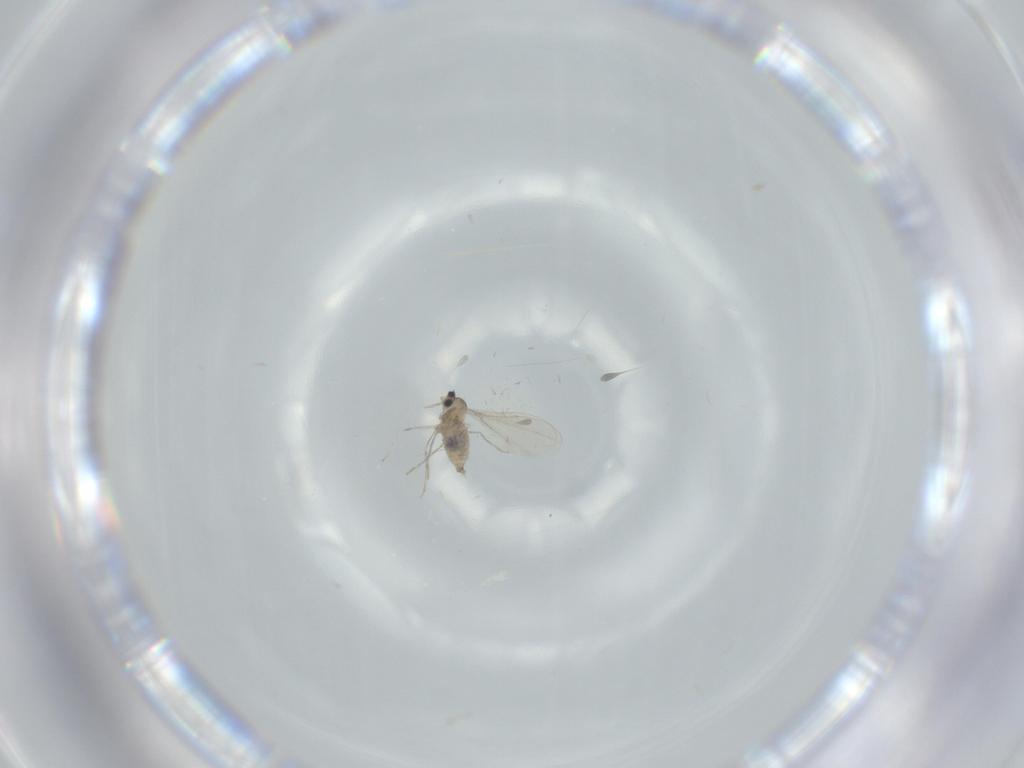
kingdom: Animalia
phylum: Arthropoda
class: Insecta
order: Diptera
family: Cecidomyiidae
